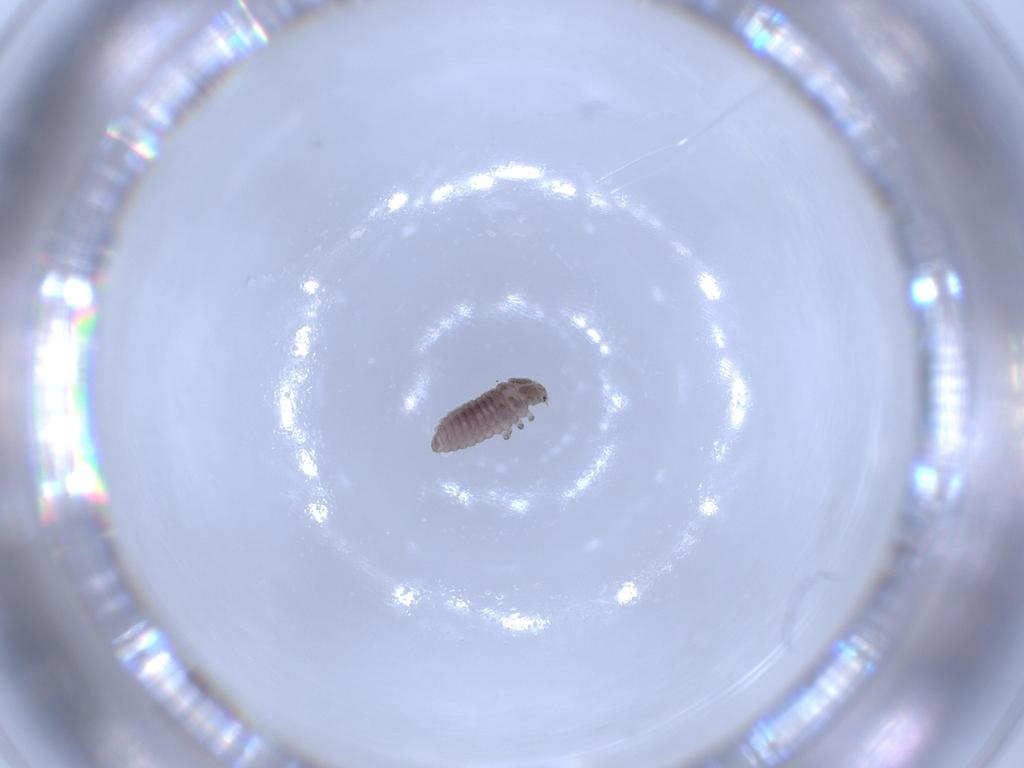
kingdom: Animalia
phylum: Arthropoda
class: Insecta
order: Coleoptera
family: Coccinellidae
